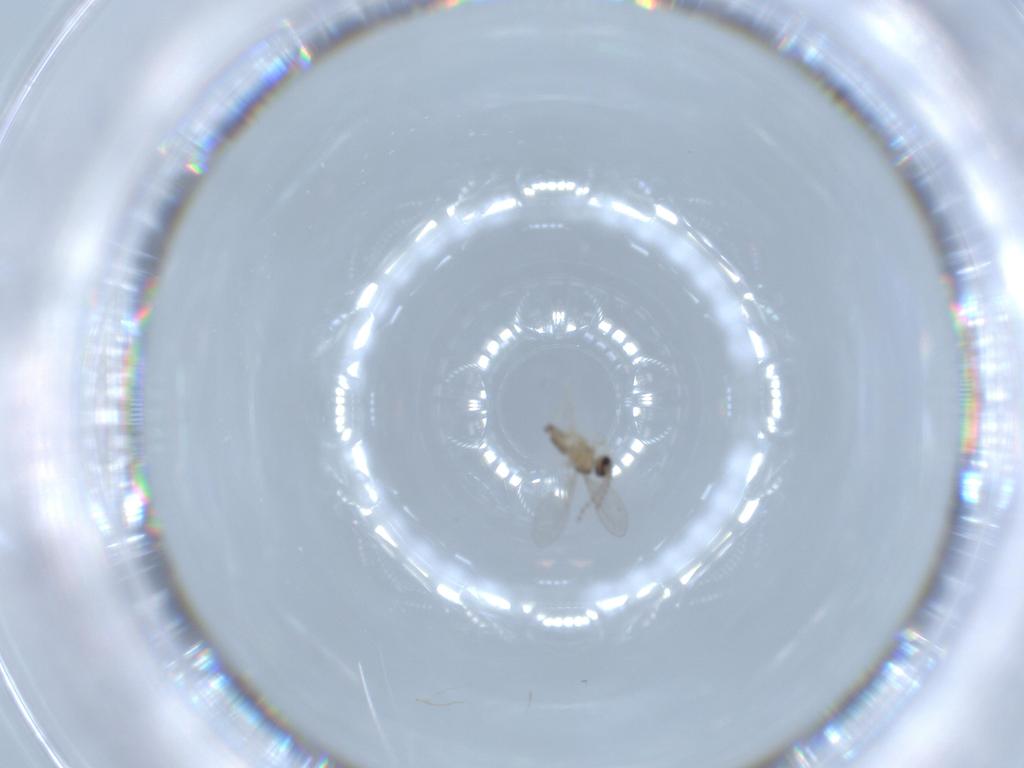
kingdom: Animalia
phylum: Arthropoda
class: Insecta
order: Diptera
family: Cecidomyiidae
